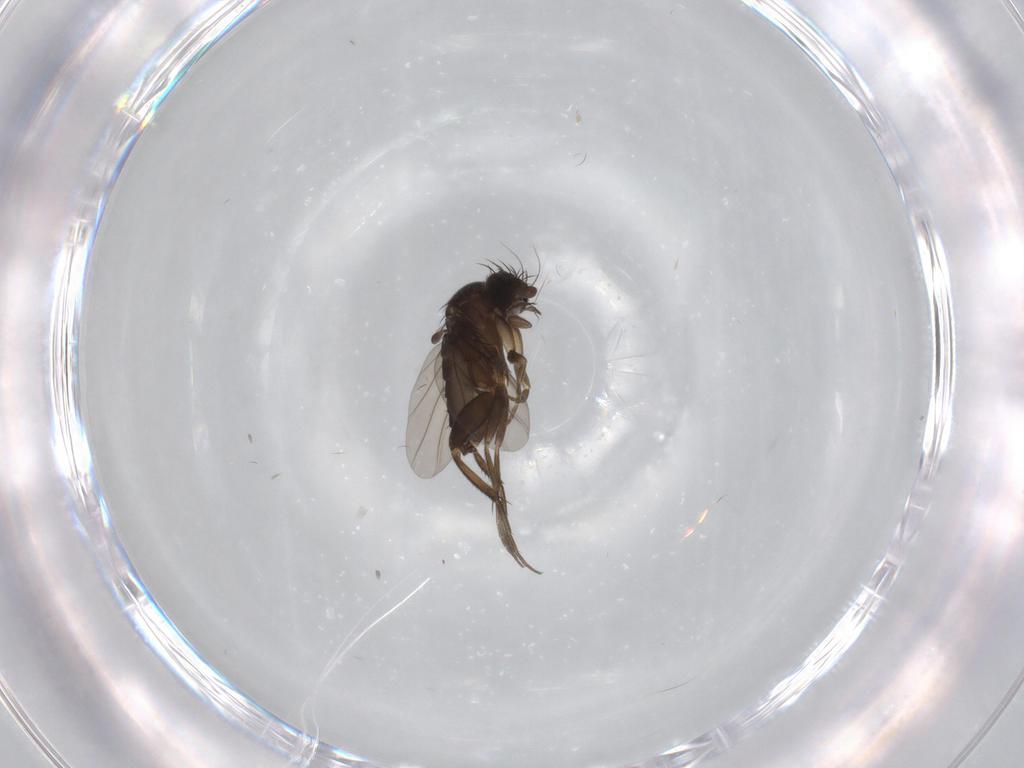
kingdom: Animalia
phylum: Arthropoda
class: Insecta
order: Diptera
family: Phoridae
